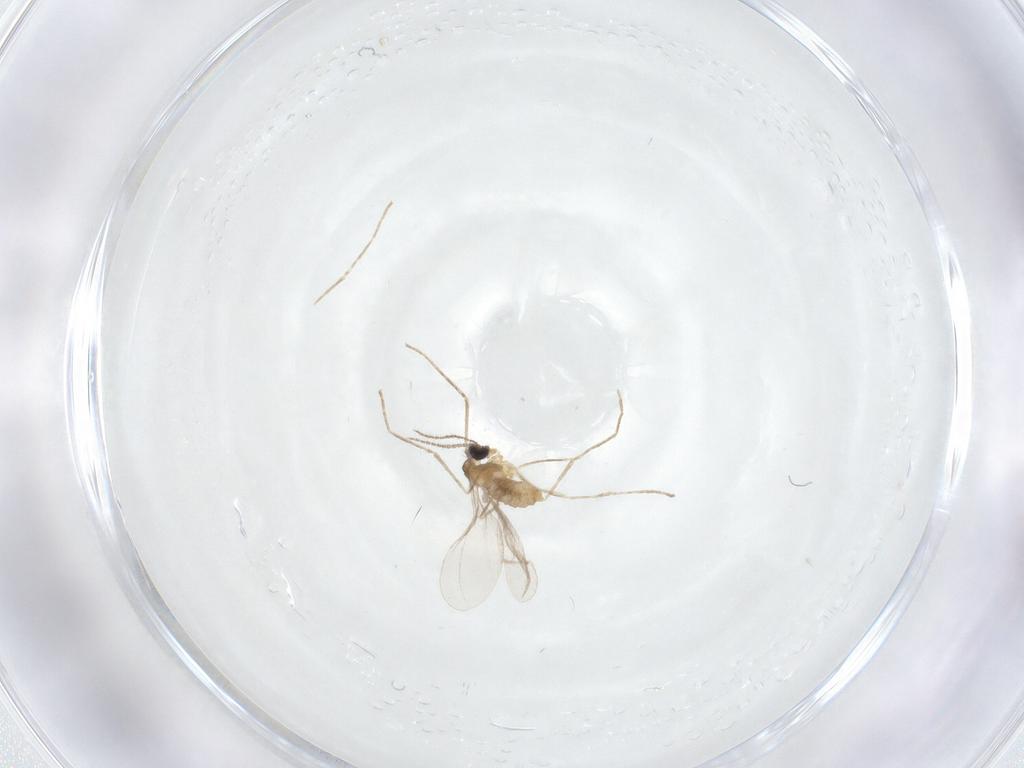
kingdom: Animalia
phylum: Arthropoda
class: Insecta
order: Diptera
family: Cecidomyiidae
